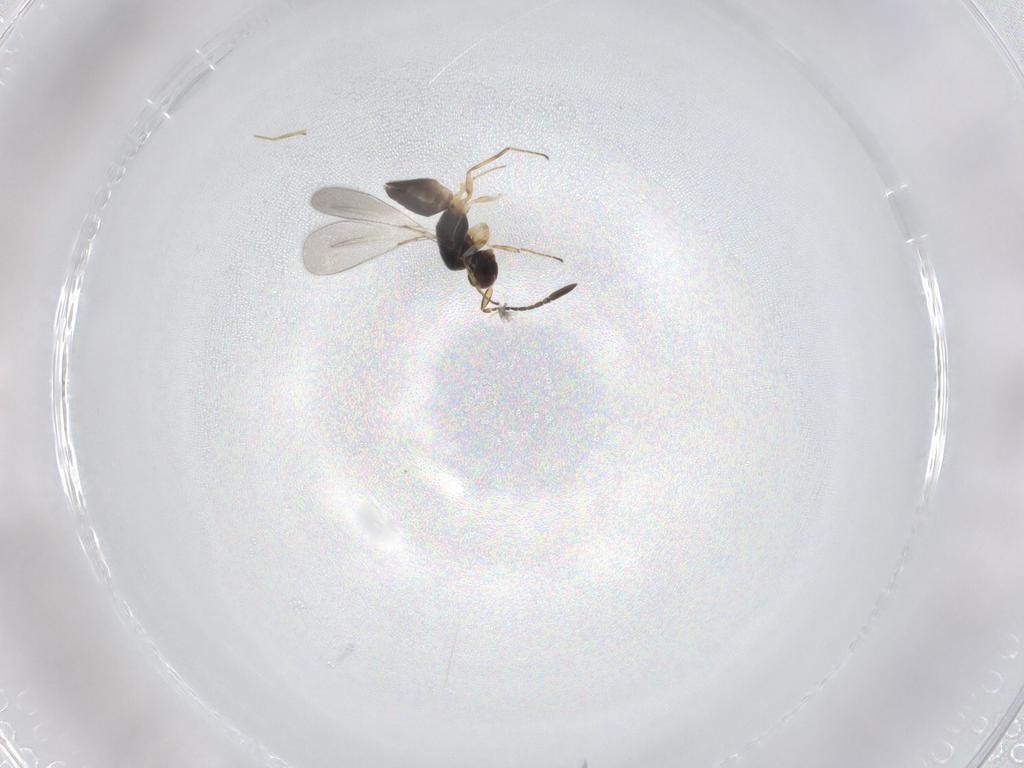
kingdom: Animalia
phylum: Arthropoda
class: Insecta
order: Hymenoptera
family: Mymaridae
